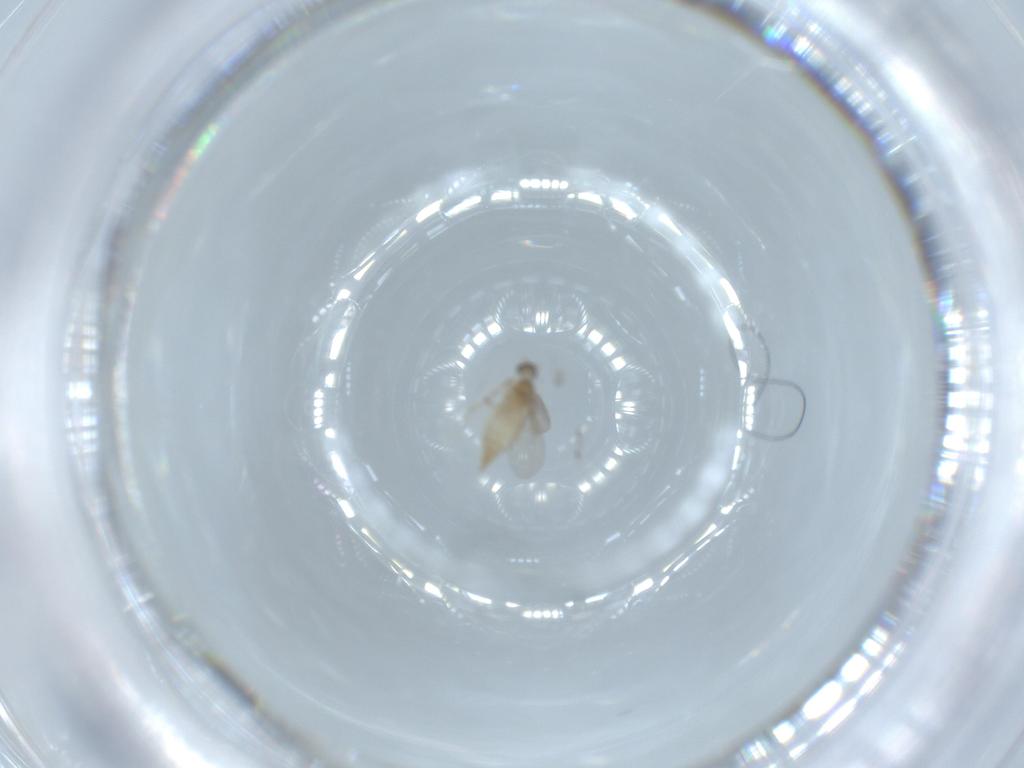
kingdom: Animalia
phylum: Arthropoda
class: Insecta
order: Diptera
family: Cecidomyiidae
